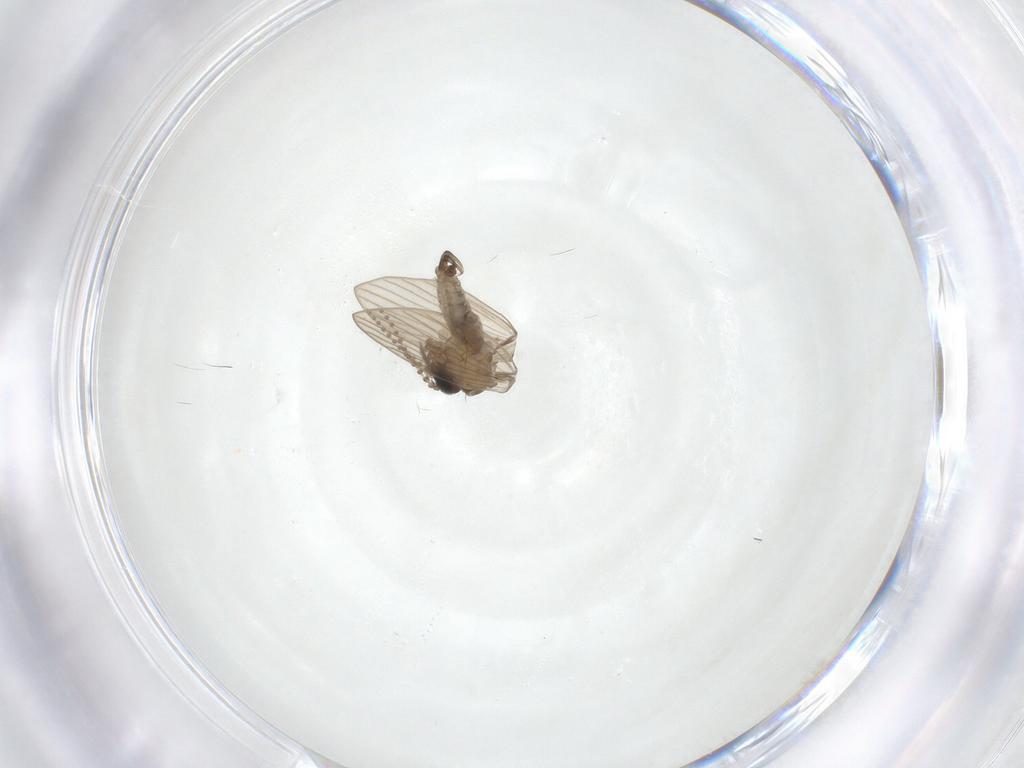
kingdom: Animalia
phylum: Arthropoda
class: Insecta
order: Diptera
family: Psychodidae
